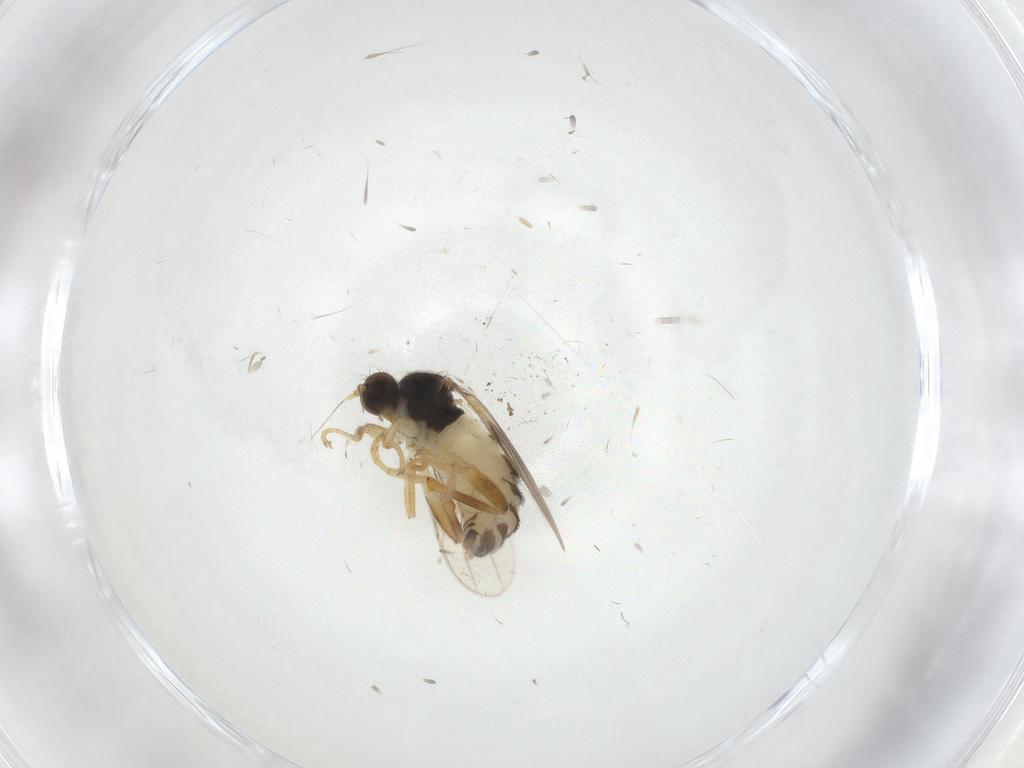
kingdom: Animalia
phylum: Arthropoda
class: Insecta
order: Diptera
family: Hybotidae
